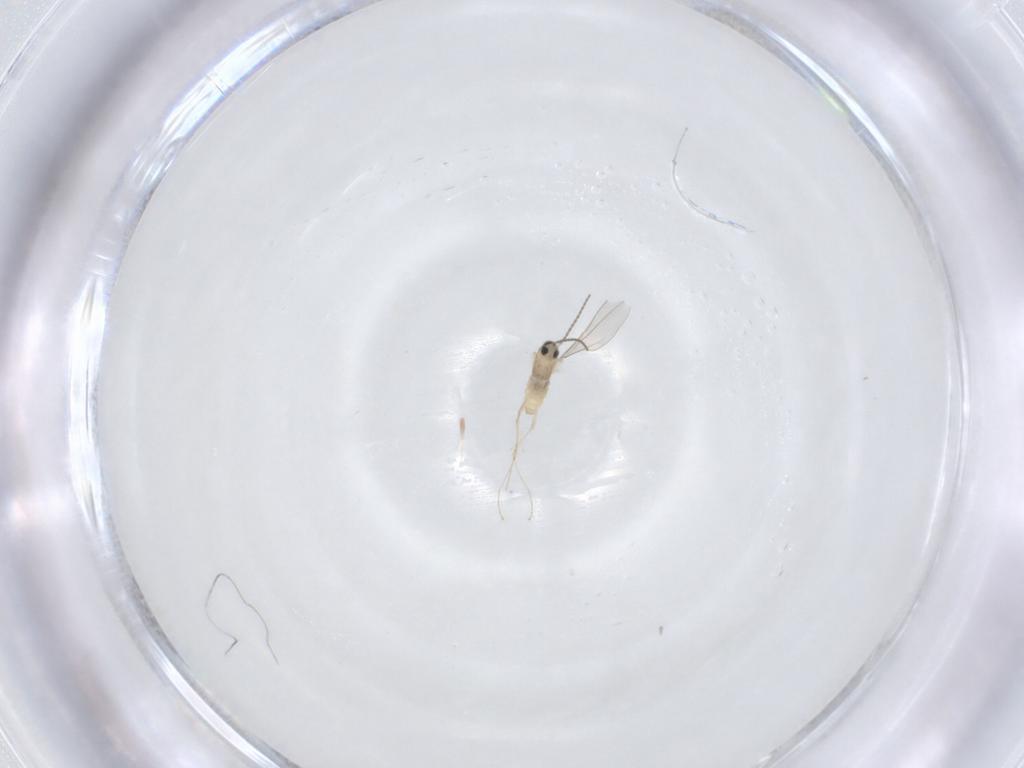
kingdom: Animalia
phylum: Arthropoda
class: Insecta
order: Diptera
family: Cecidomyiidae
